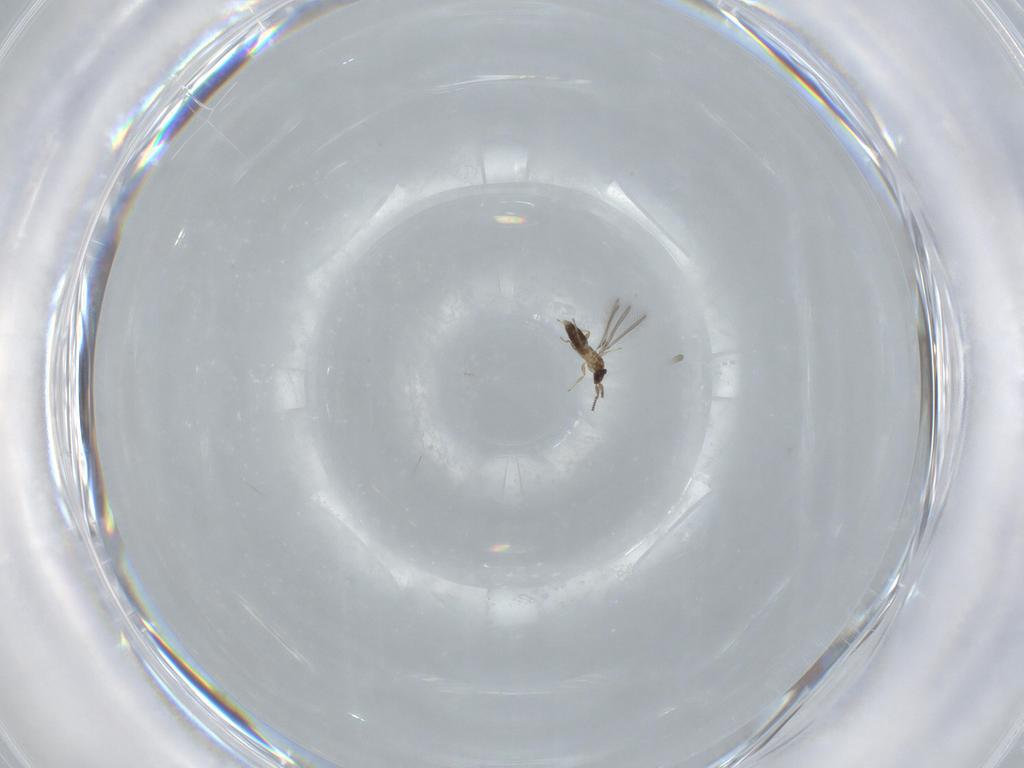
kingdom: Animalia
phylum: Arthropoda
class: Insecta
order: Hymenoptera
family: Mymaridae
